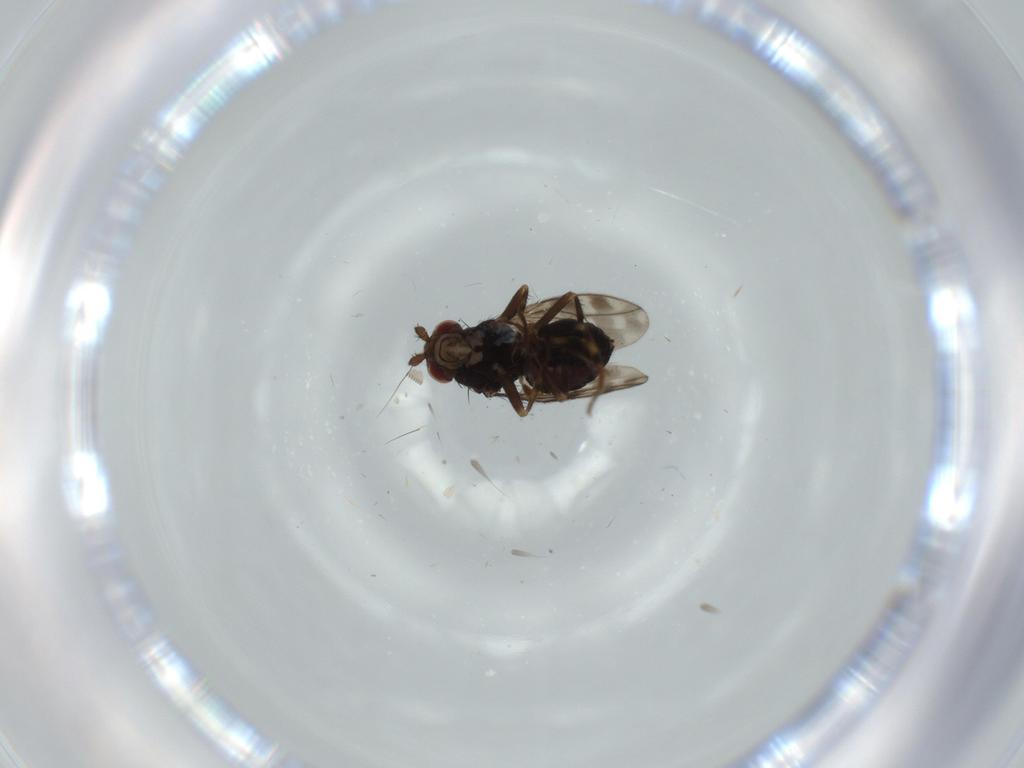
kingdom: Animalia
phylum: Arthropoda
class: Insecta
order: Diptera
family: Sphaeroceridae
